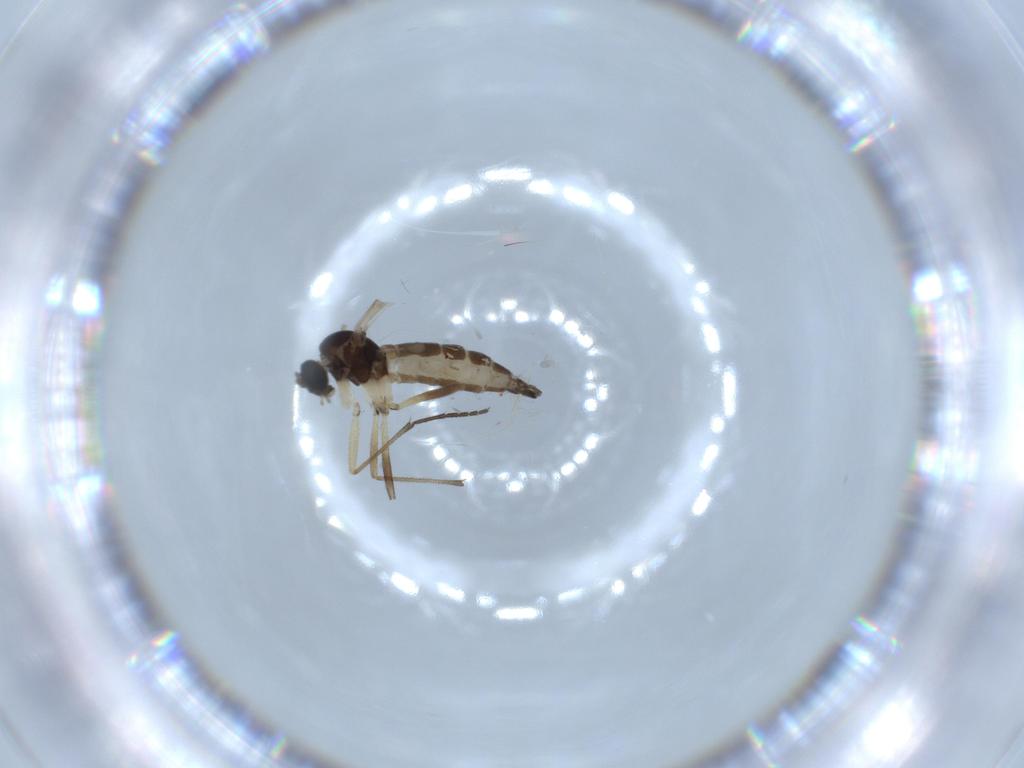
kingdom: Animalia
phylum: Arthropoda
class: Insecta
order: Diptera
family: Sciaridae
